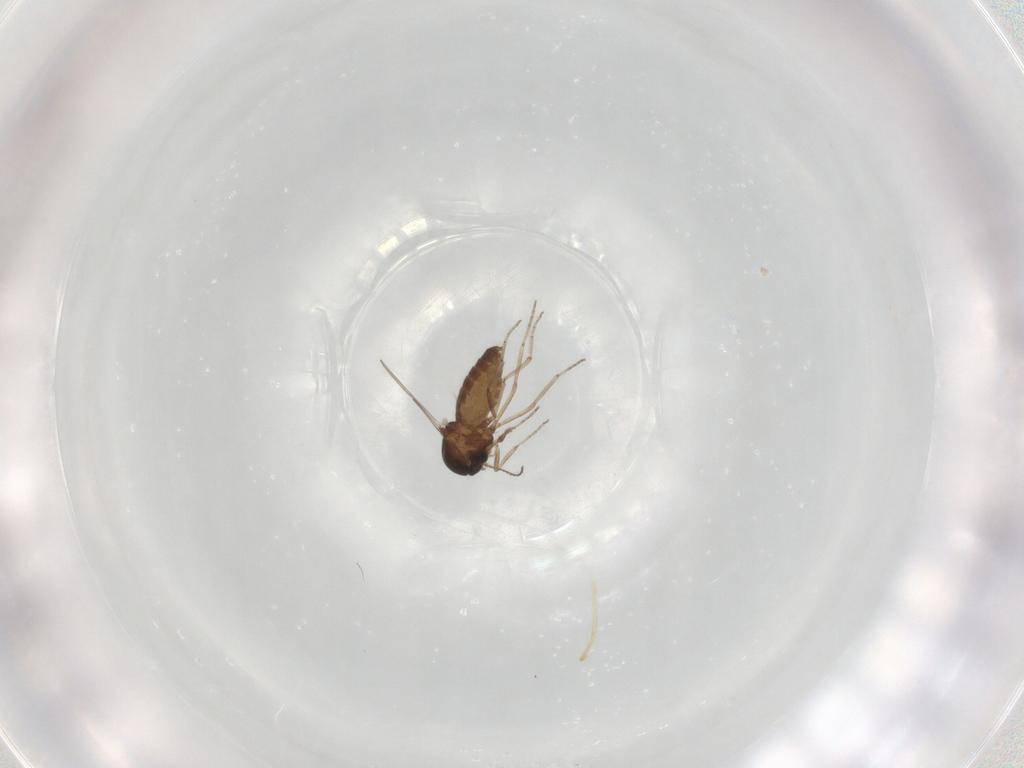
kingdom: Animalia
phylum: Arthropoda
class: Insecta
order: Diptera
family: Ceratopogonidae
